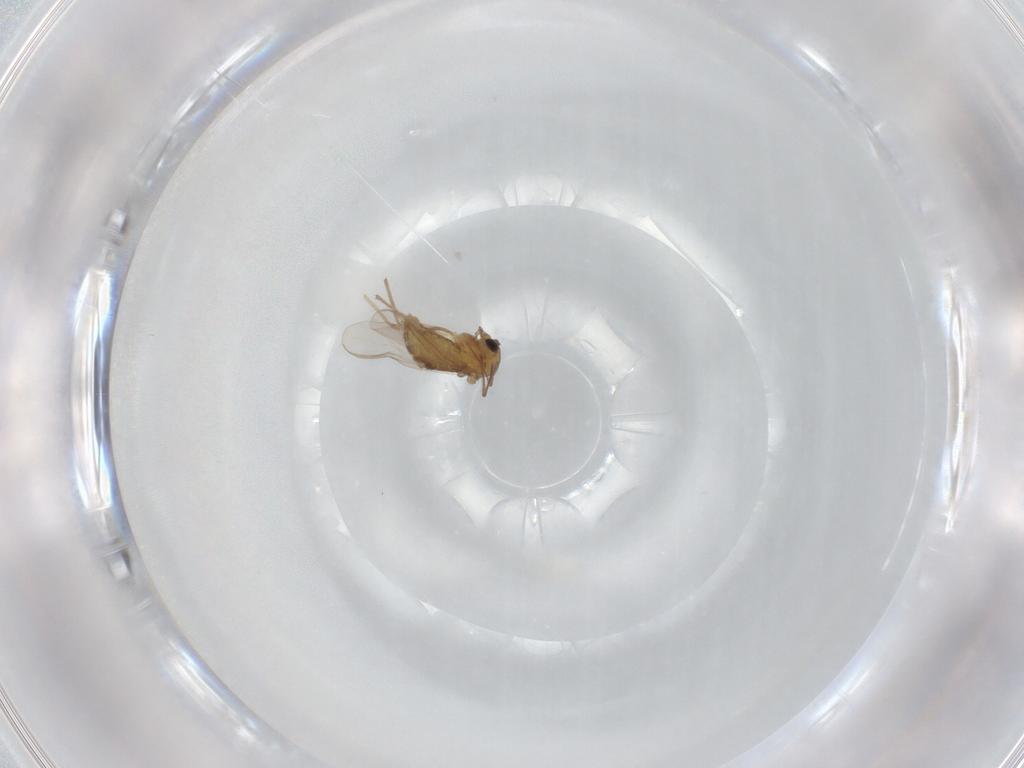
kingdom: Animalia
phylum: Arthropoda
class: Insecta
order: Diptera
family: Chironomidae
